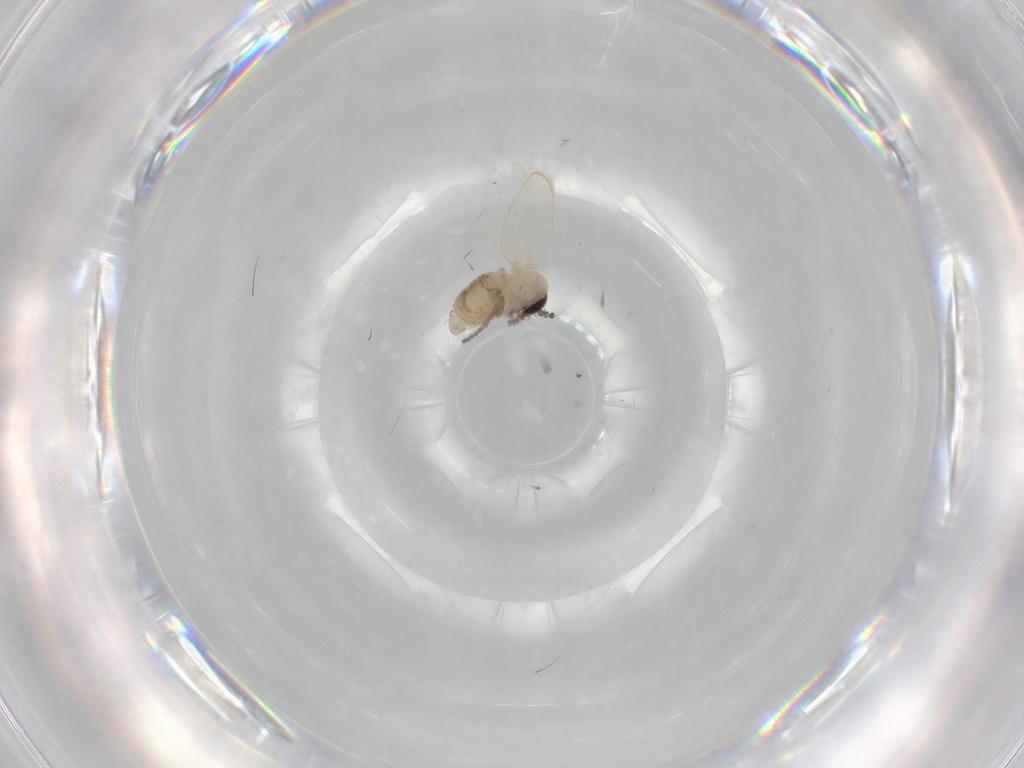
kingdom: Animalia
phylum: Arthropoda
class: Insecta
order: Diptera
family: Psychodidae
